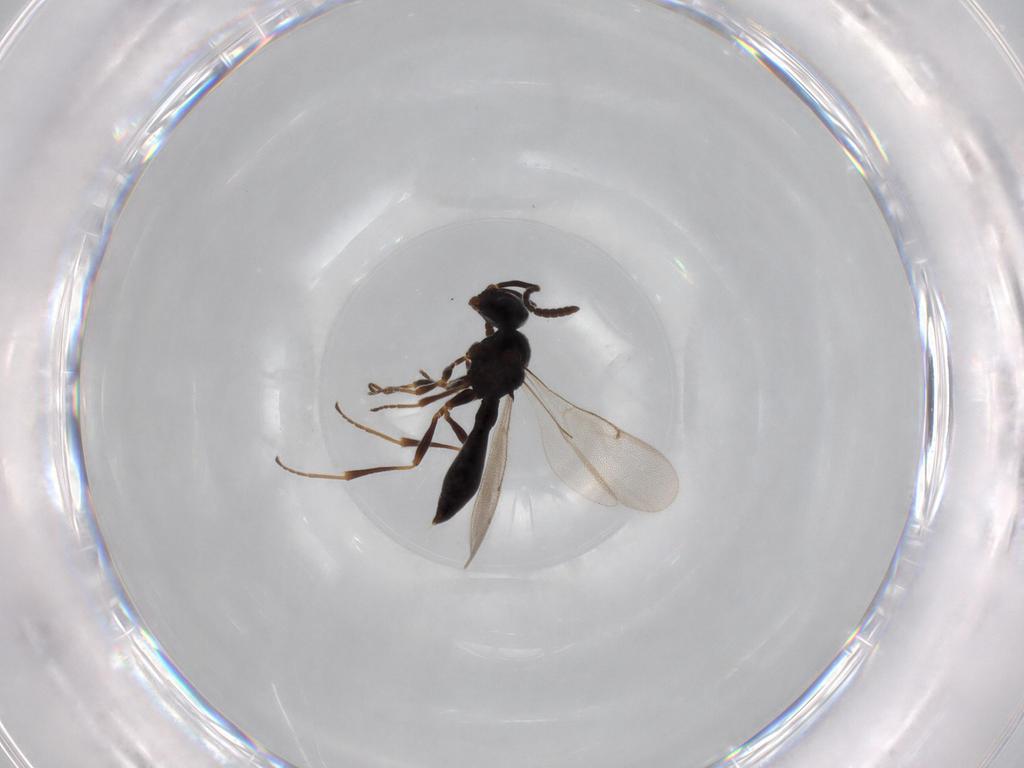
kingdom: Animalia
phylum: Arthropoda
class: Insecta
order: Hymenoptera
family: Scelionidae
